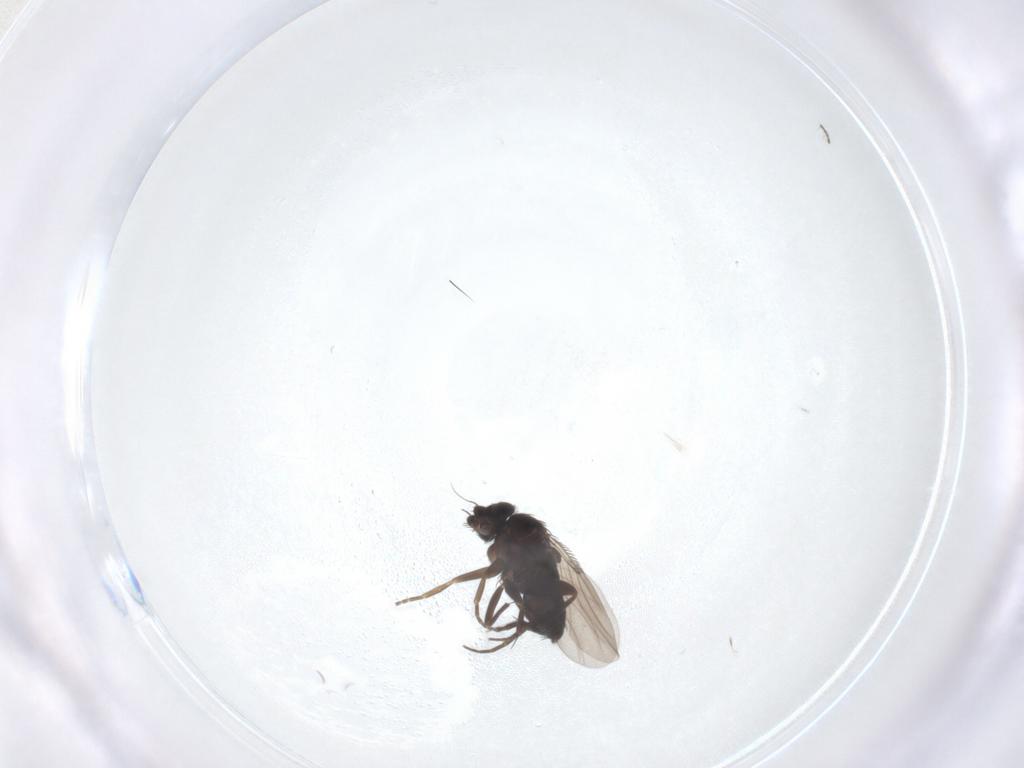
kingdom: Animalia
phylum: Arthropoda
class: Insecta
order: Diptera
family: Phoridae
